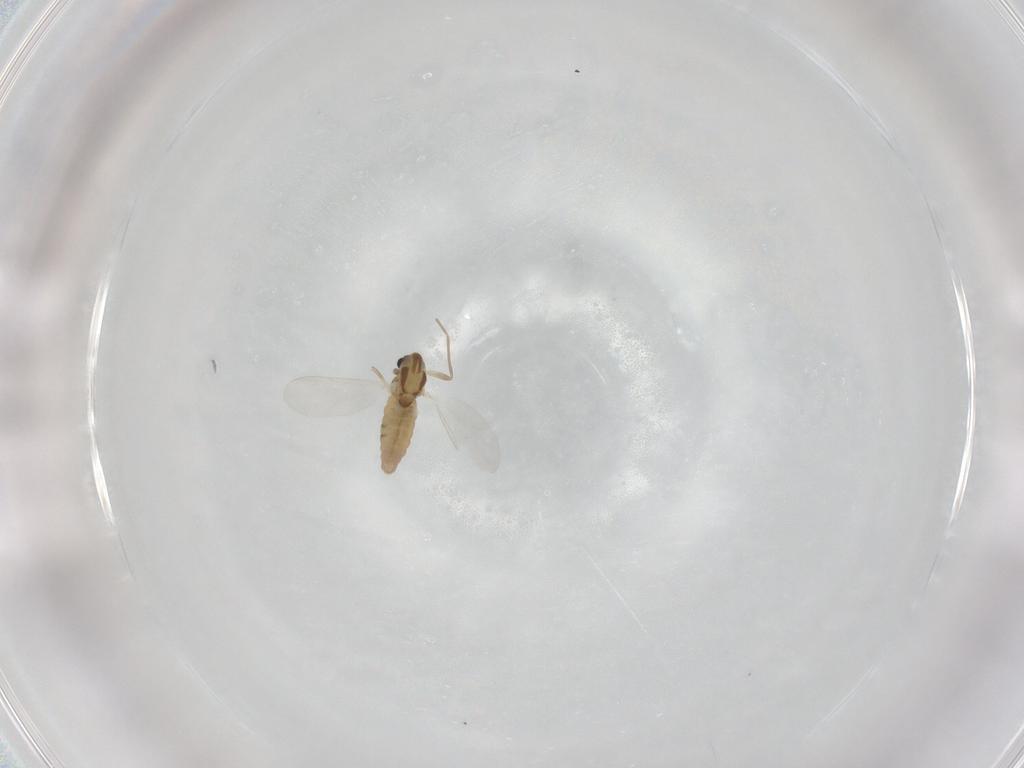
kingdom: Animalia
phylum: Arthropoda
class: Insecta
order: Diptera
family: Chironomidae
